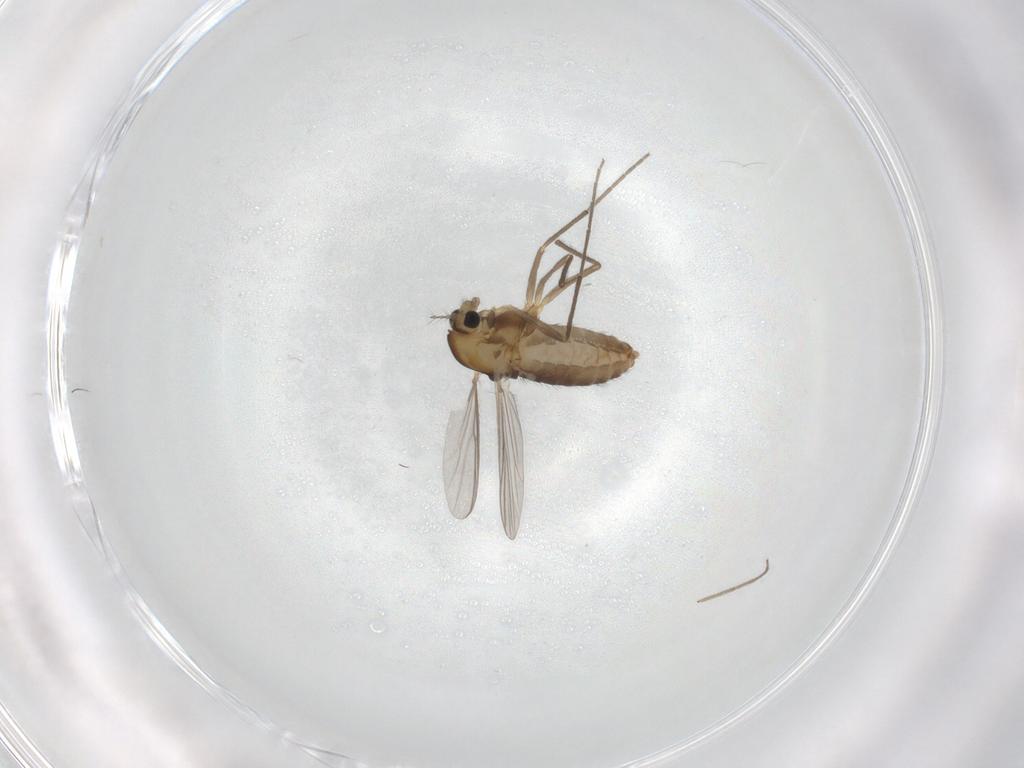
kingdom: Animalia
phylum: Arthropoda
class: Insecta
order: Diptera
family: Chironomidae
